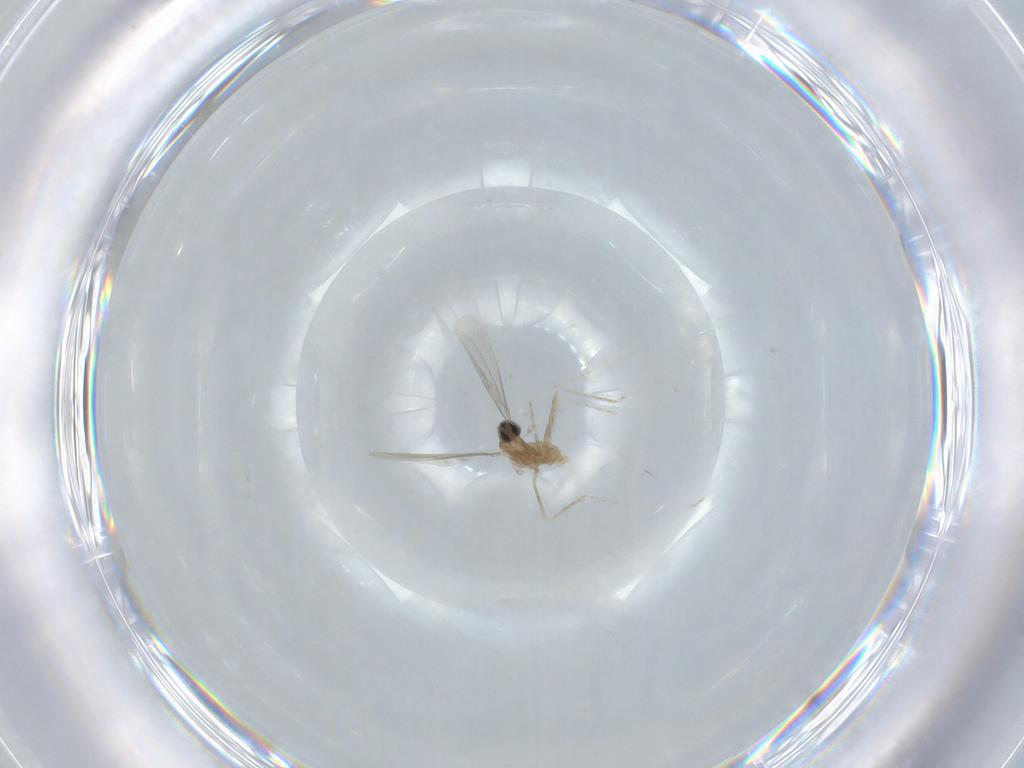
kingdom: Animalia
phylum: Arthropoda
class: Insecta
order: Diptera
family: Cecidomyiidae
